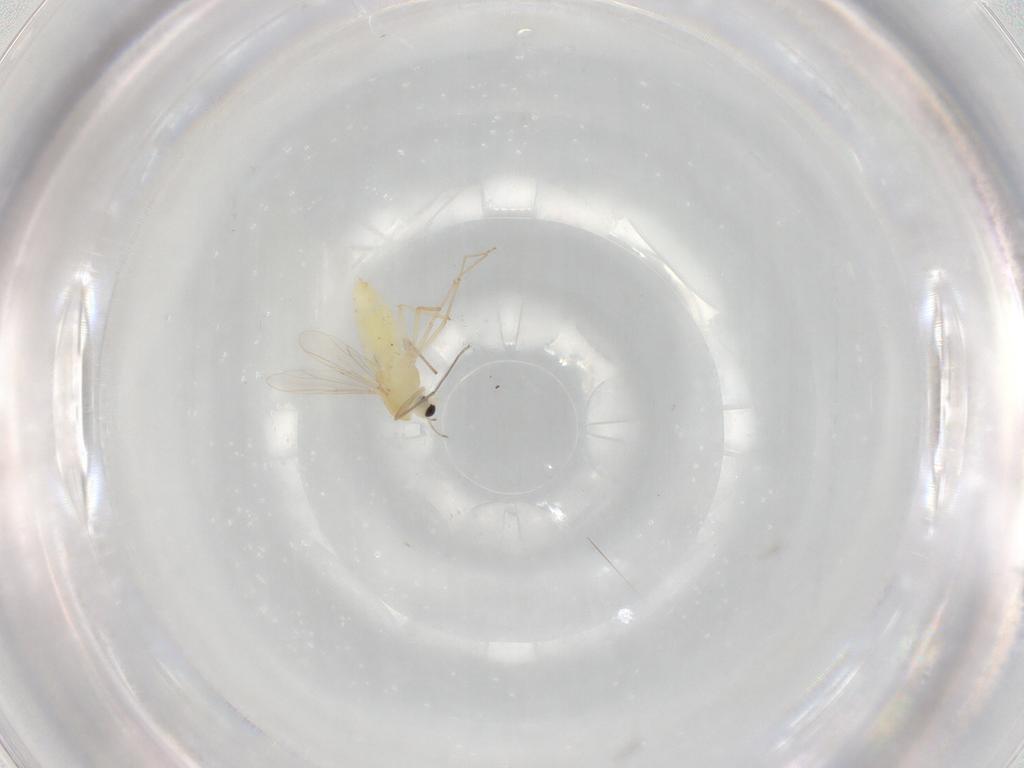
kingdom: Animalia
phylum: Arthropoda
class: Insecta
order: Diptera
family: Chironomidae
